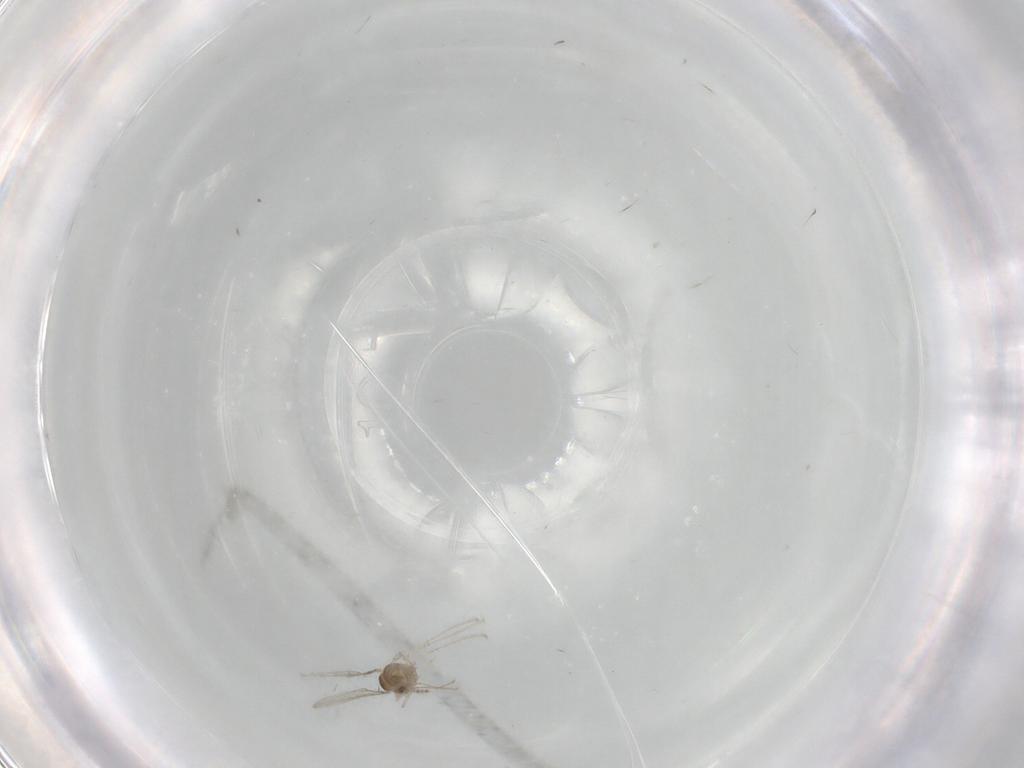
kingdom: Animalia
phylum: Arthropoda
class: Insecta
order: Diptera
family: Cecidomyiidae
